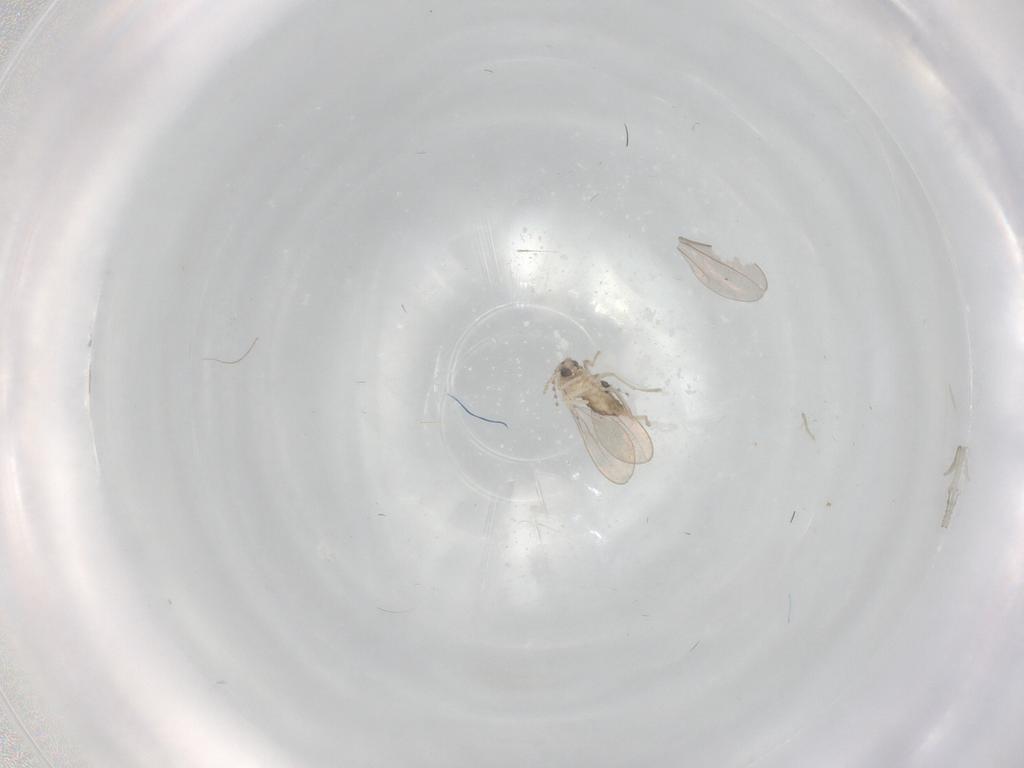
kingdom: Animalia
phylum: Arthropoda
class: Insecta
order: Diptera
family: Cecidomyiidae
